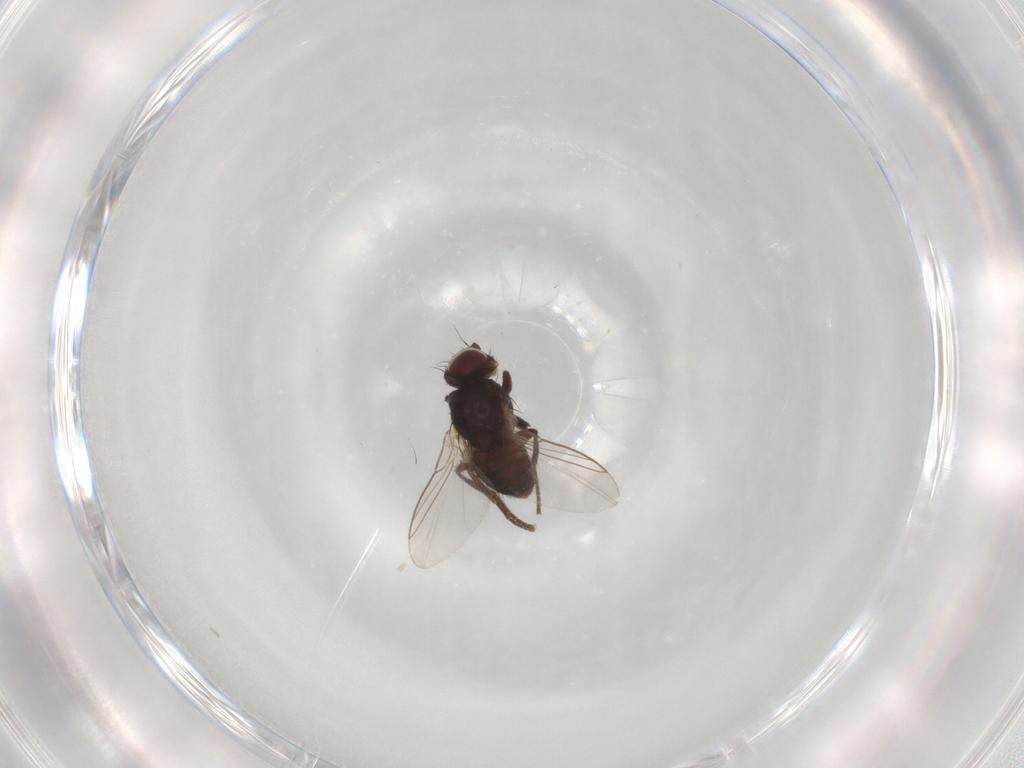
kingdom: Animalia
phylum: Arthropoda
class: Insecta
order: Diptera
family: Dolichopodidae
